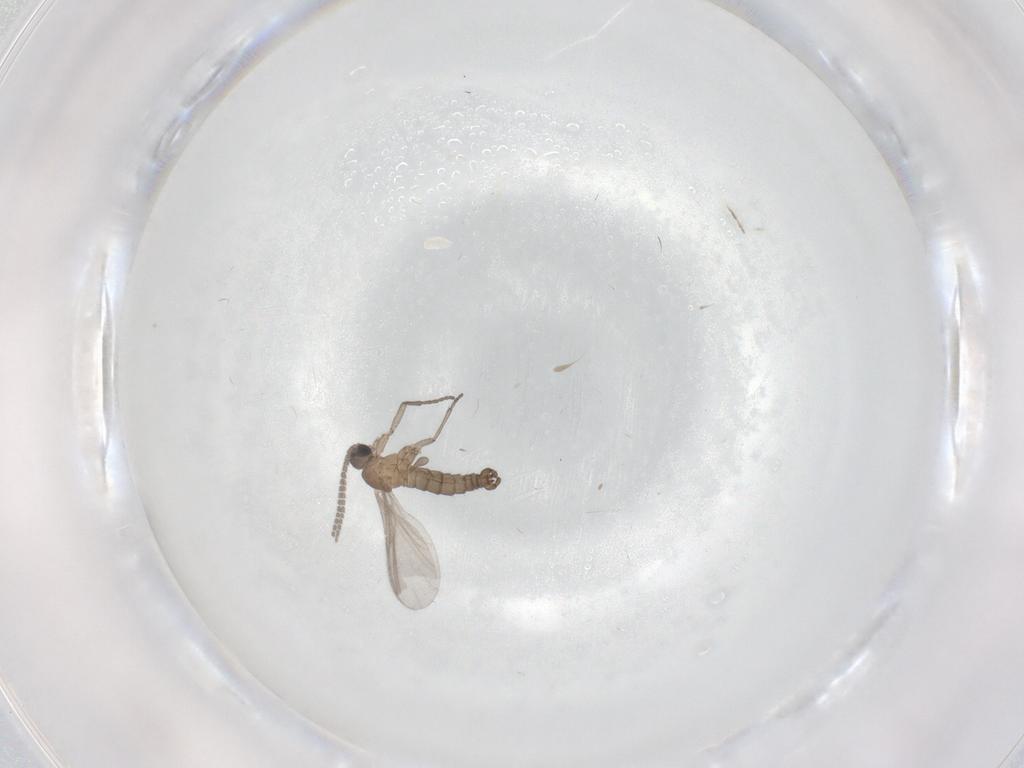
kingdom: Animalia
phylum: Arthropoda
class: Insecta
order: Diptera
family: Sciaridae
